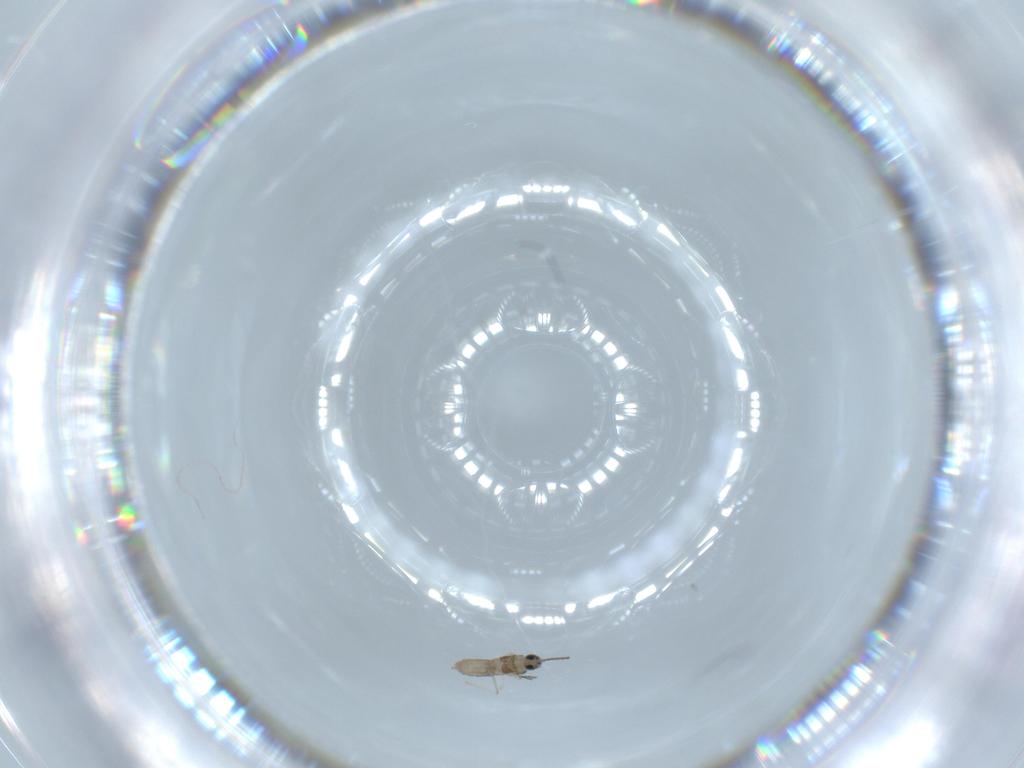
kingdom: Animalia
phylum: Arthropoda
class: Insecta
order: Diptera
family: Cecidomyiidae
